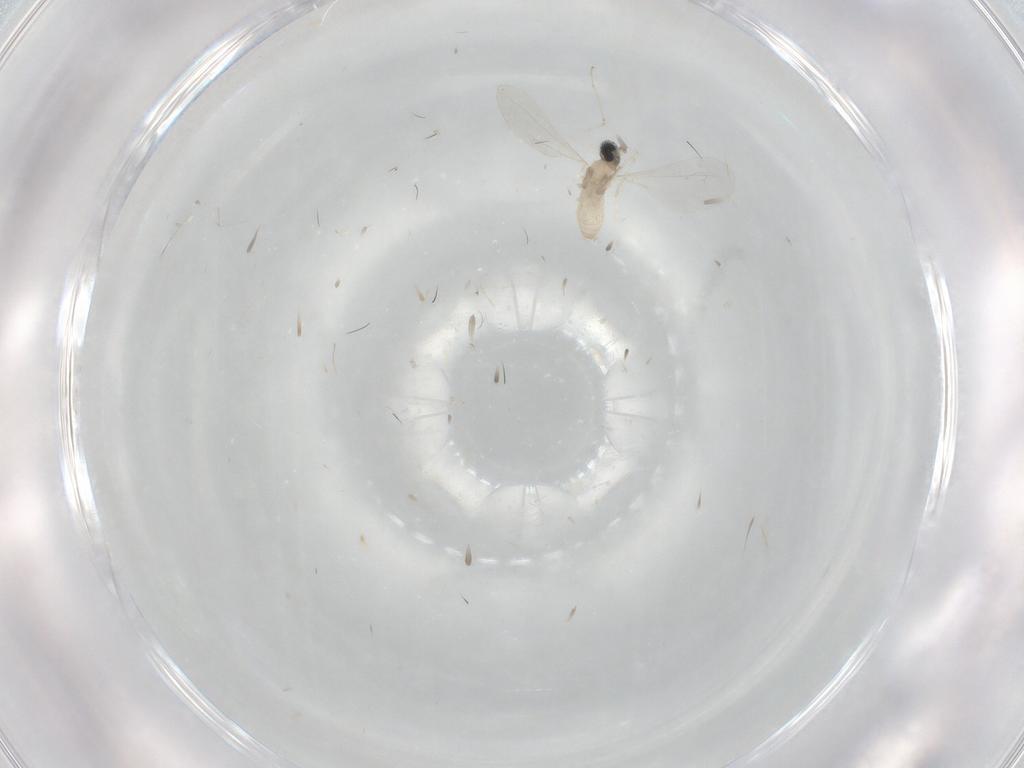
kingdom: Animalia
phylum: Arthropoda
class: Insecta
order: Diptera
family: Cecidomyiidae
